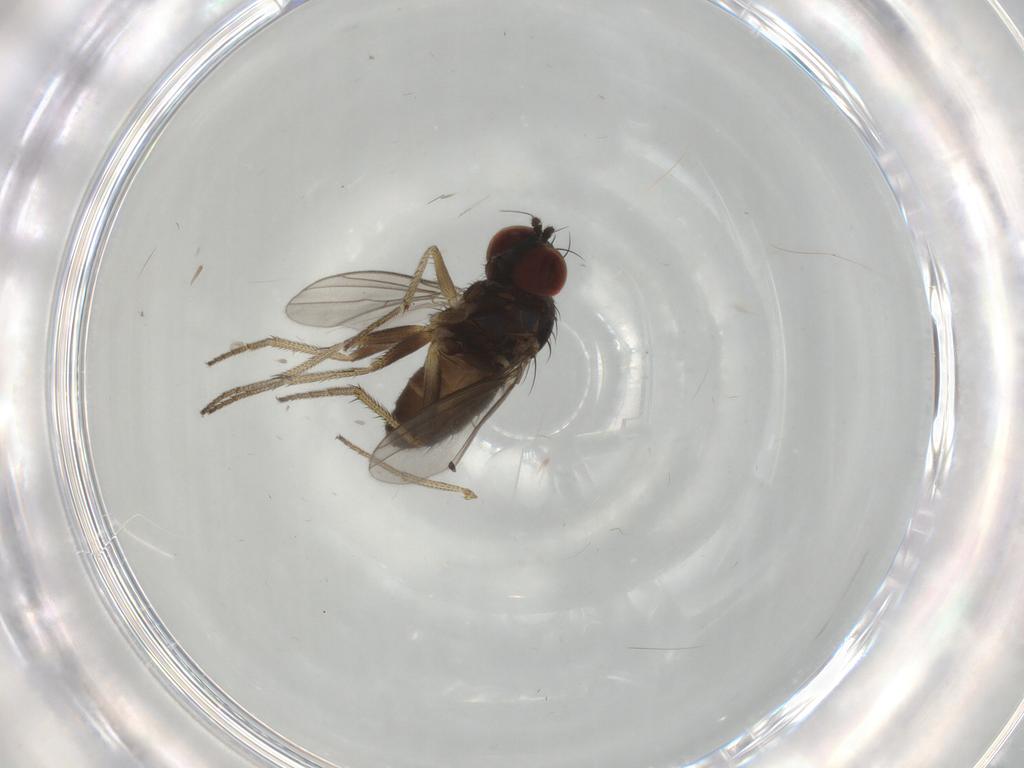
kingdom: Animalia
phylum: Arthropoda
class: Insecta
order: Diptera
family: Dolichopodidae
